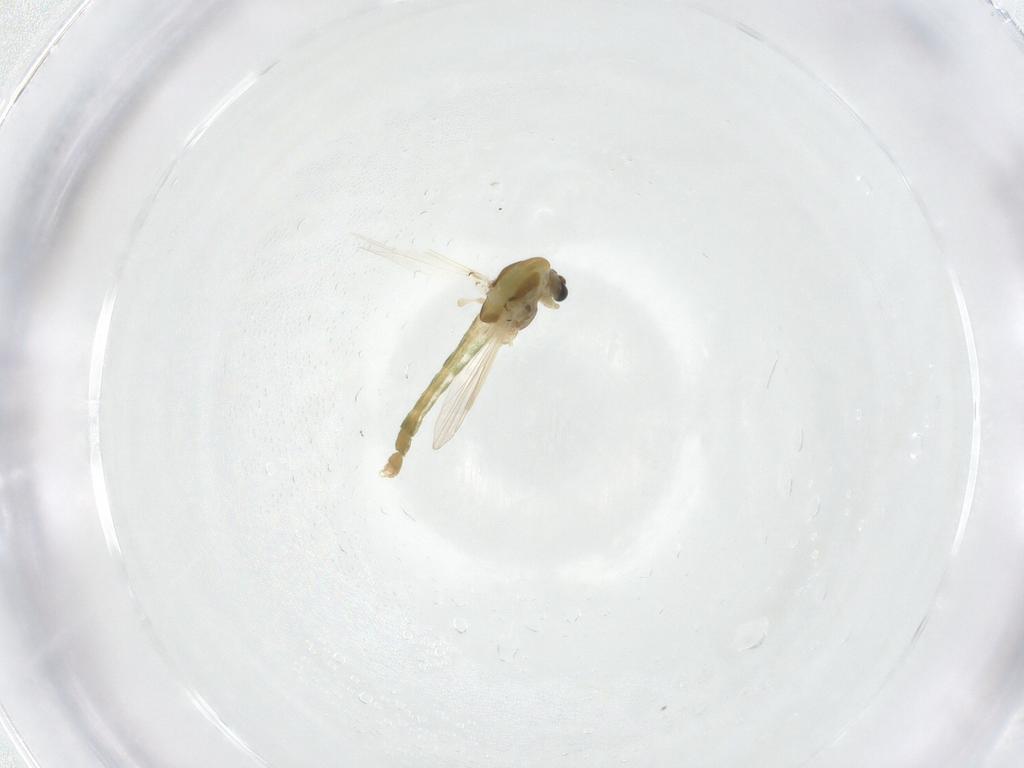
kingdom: Animalia
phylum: Arthropoda
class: Insecta
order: Diptera
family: Chironomidae
